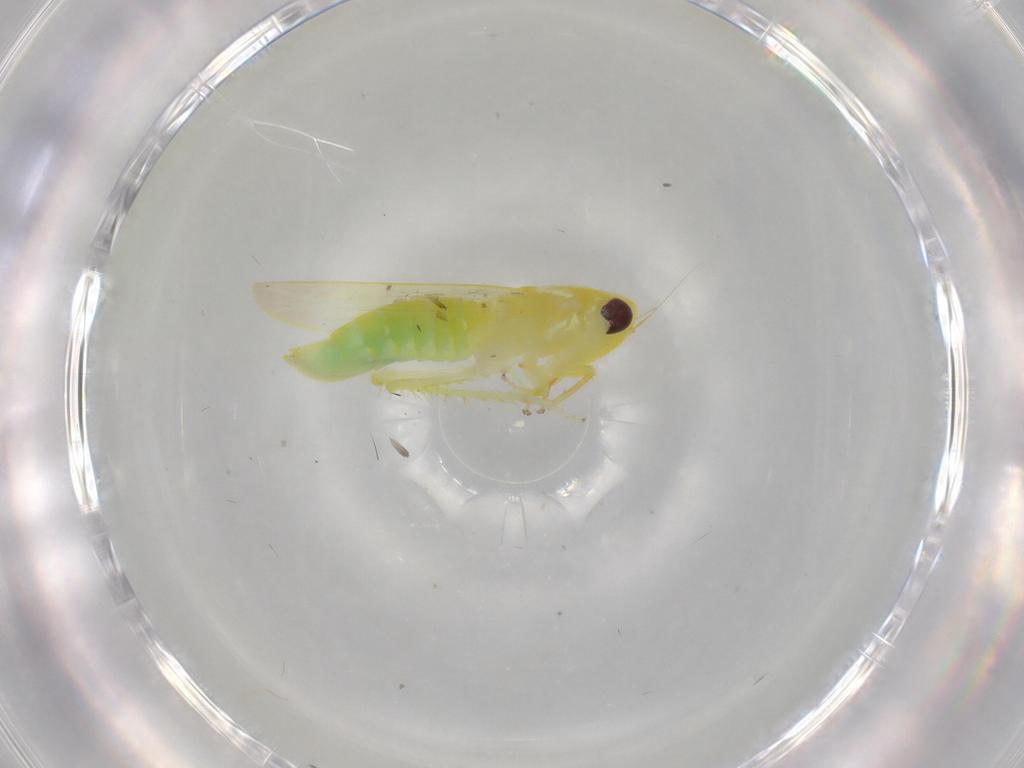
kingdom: Animalia
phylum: Arthropoda
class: Insecta
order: Hemiptera
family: Cicadellidae
